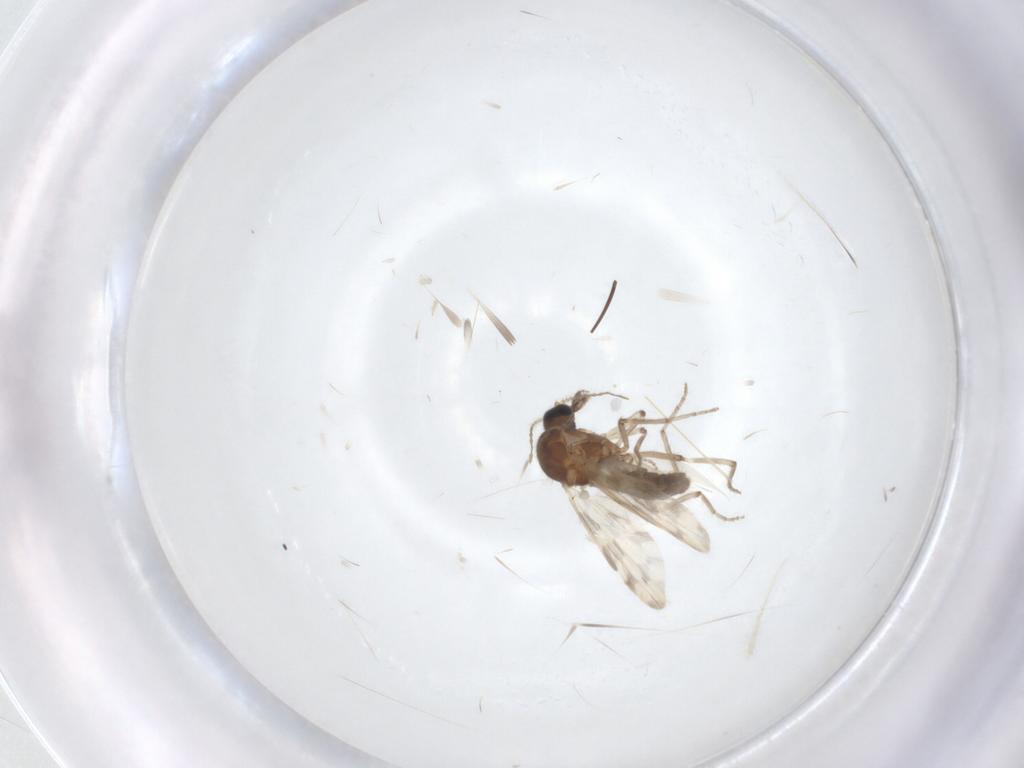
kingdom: Animalia
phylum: Arthropoda
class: Insecta
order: Diptera
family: Ceratopogonidae
